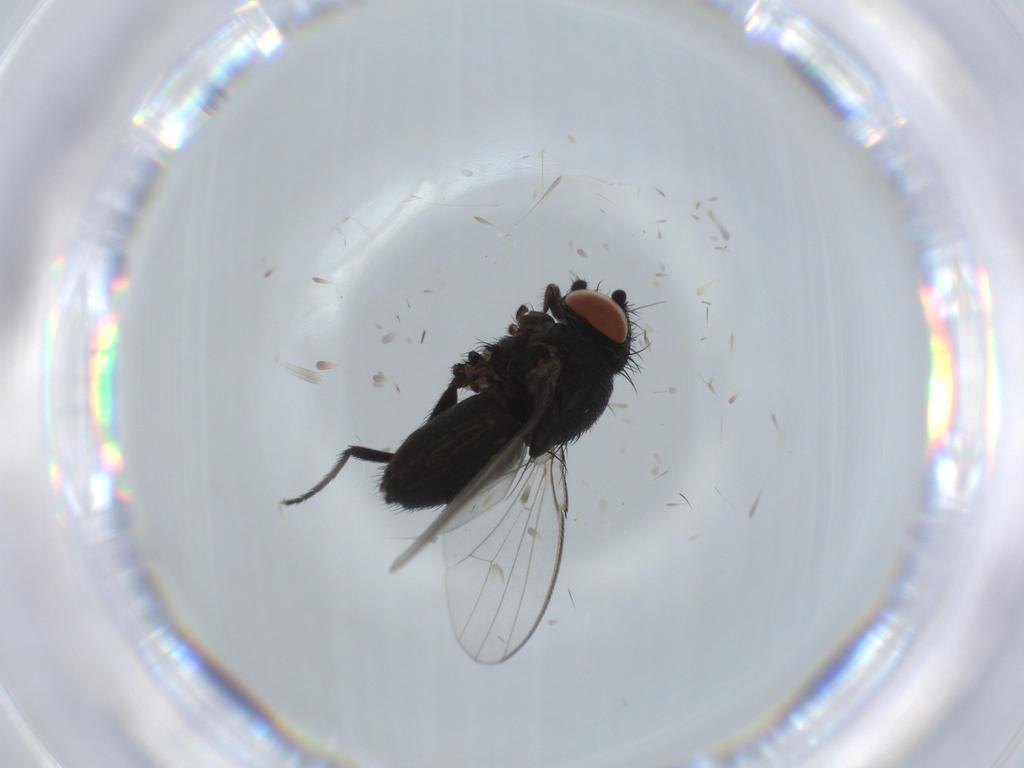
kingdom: Animalia
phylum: Arthropoda
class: Insecta
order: Diptera
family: Milichiidae
